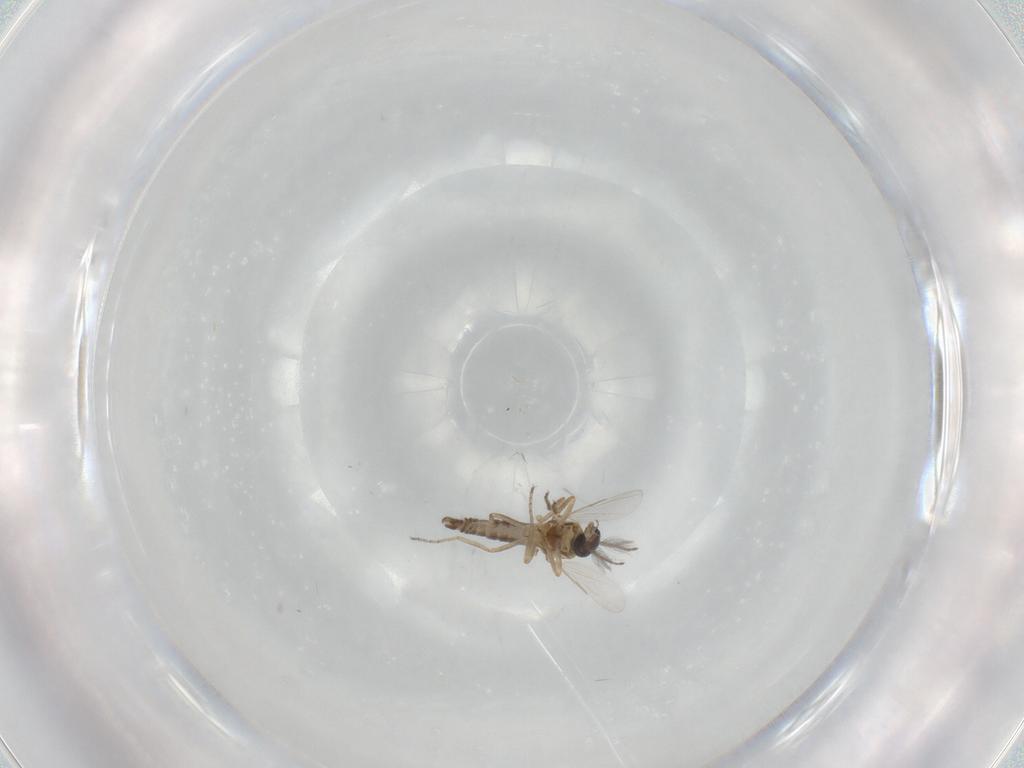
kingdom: Animalia
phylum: Arthropoda
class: Insecta
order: Diptera
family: Ceratopogonidae
